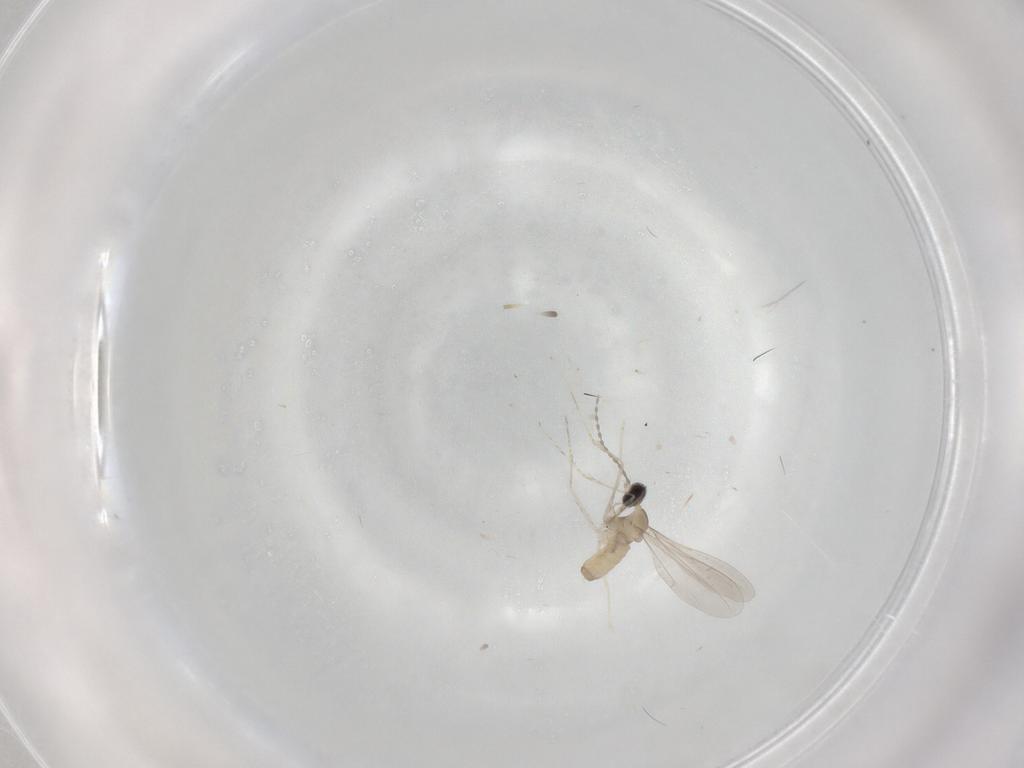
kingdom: Animalia
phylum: Arthropoda
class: Insecta
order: Diptera
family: Cecidomyiidae
